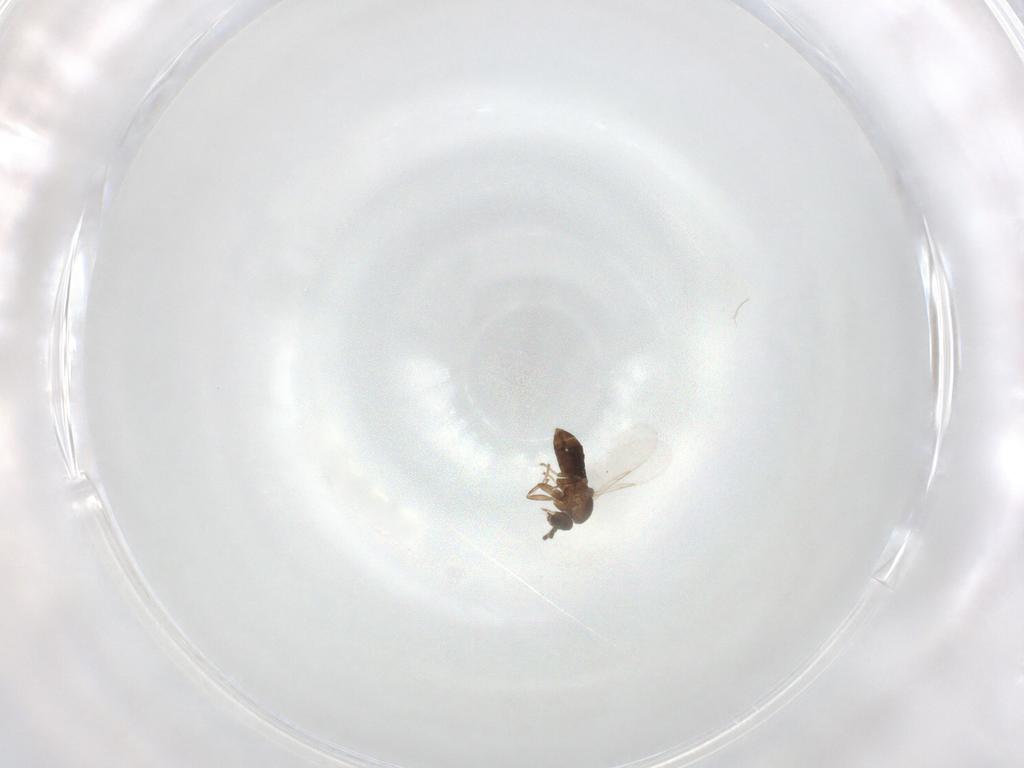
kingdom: Animalia
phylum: Arthropoda
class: Insecta
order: Diptera
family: Scatopsidae
